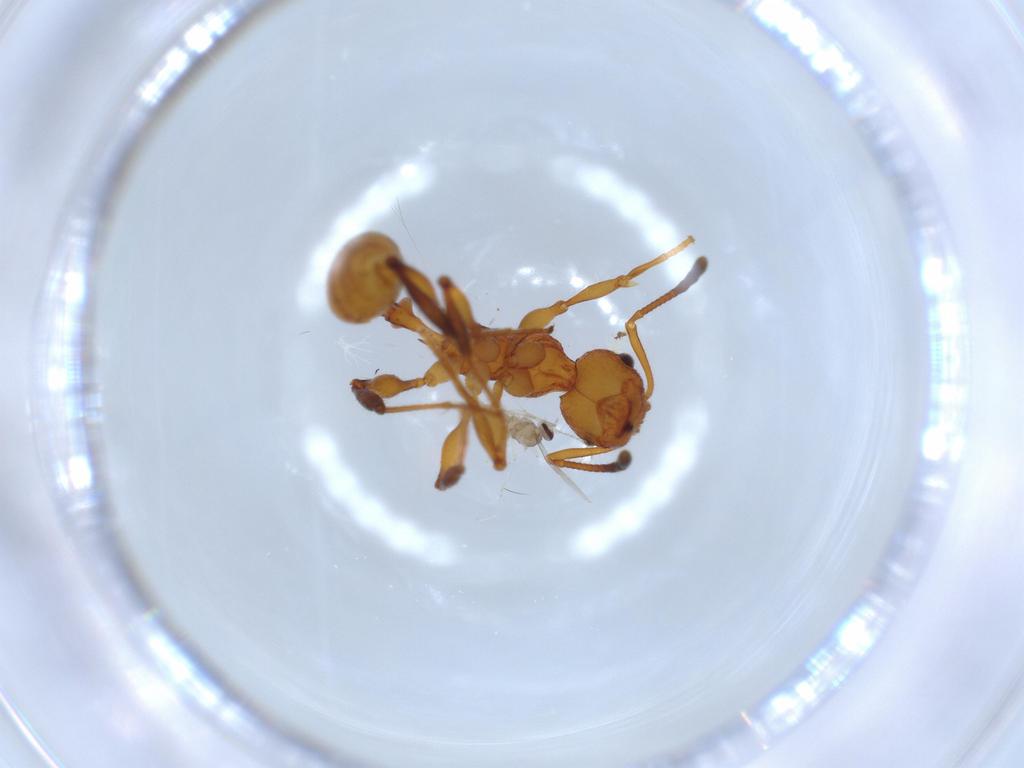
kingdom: Animalia
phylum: Arthropoda
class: Insecta
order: Diptera
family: Cecidomyiidae
